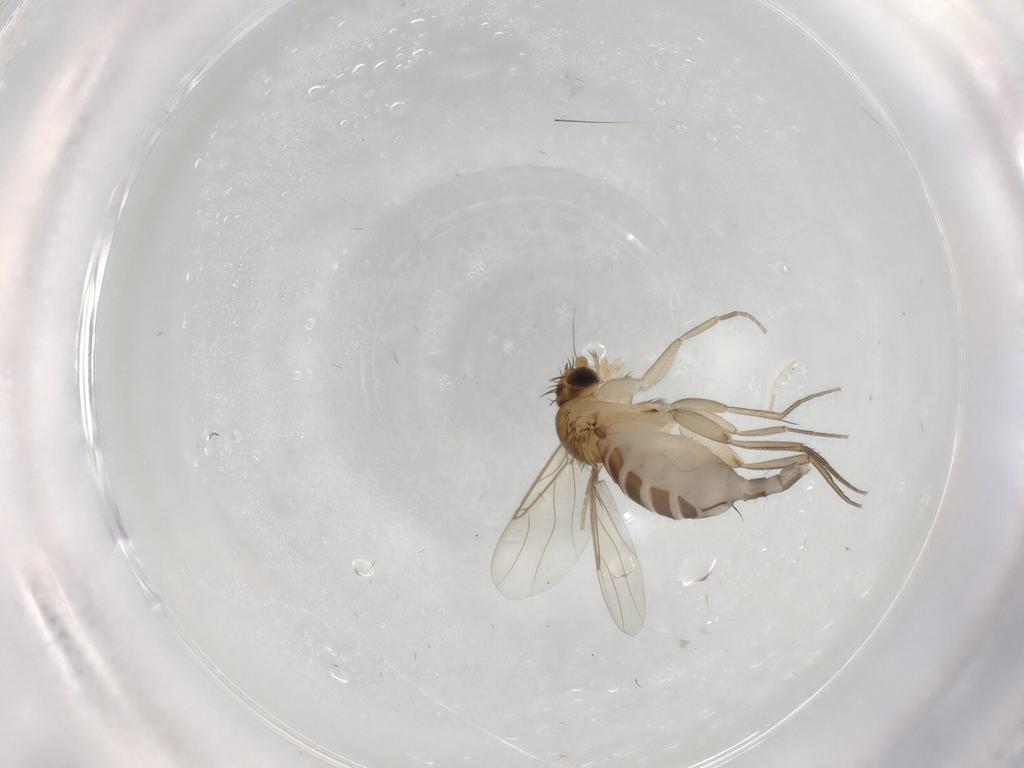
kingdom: Animalia
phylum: Arthropoda
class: Insecta
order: Diptera
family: Phoridae
